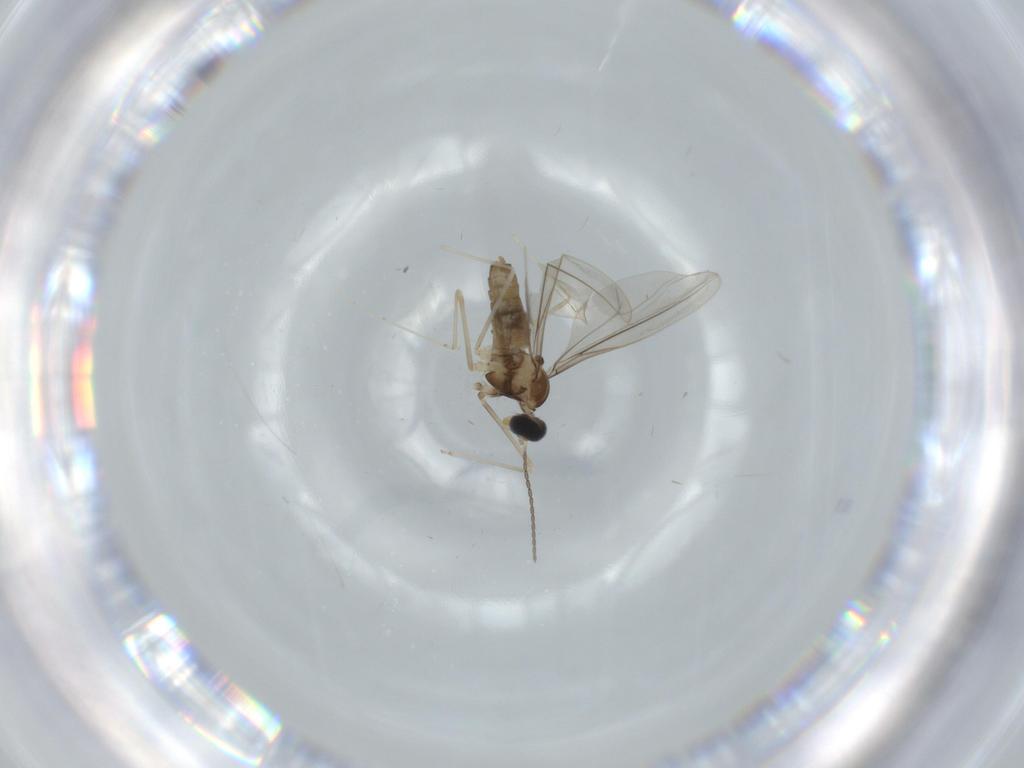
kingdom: Animalia
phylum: Arthropoda
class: Insecta
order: Diptera
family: Cecidomyiidae
